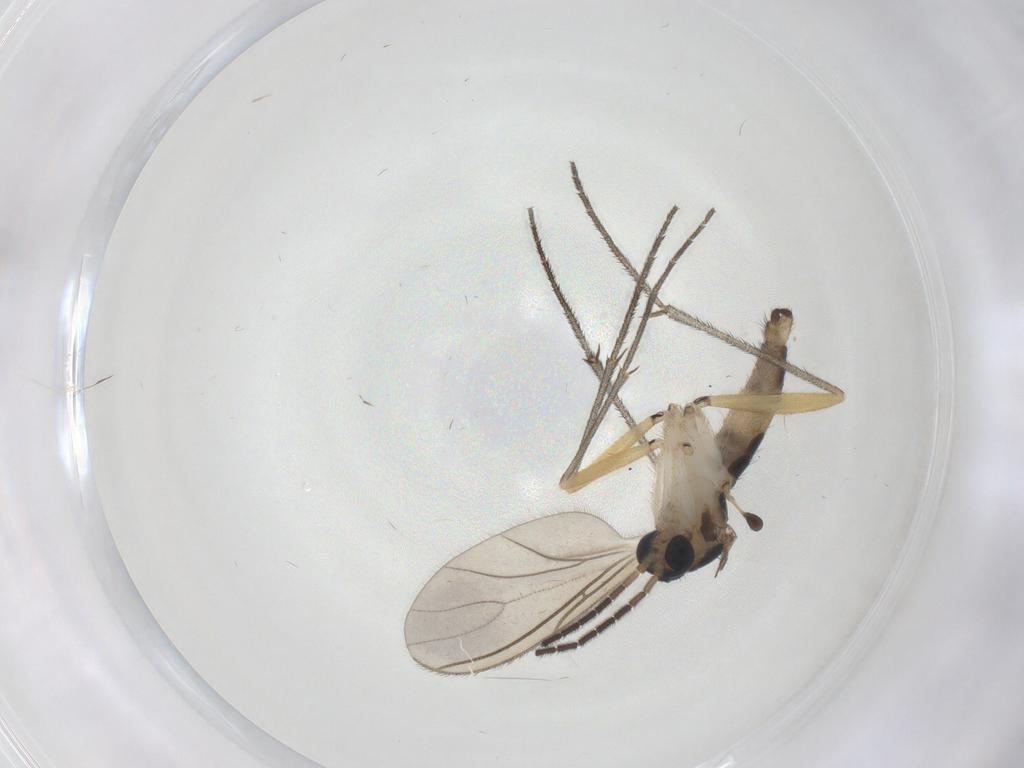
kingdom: Animalia
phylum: Arthropoda
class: Insecta
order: Diptera
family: Sciaridae
